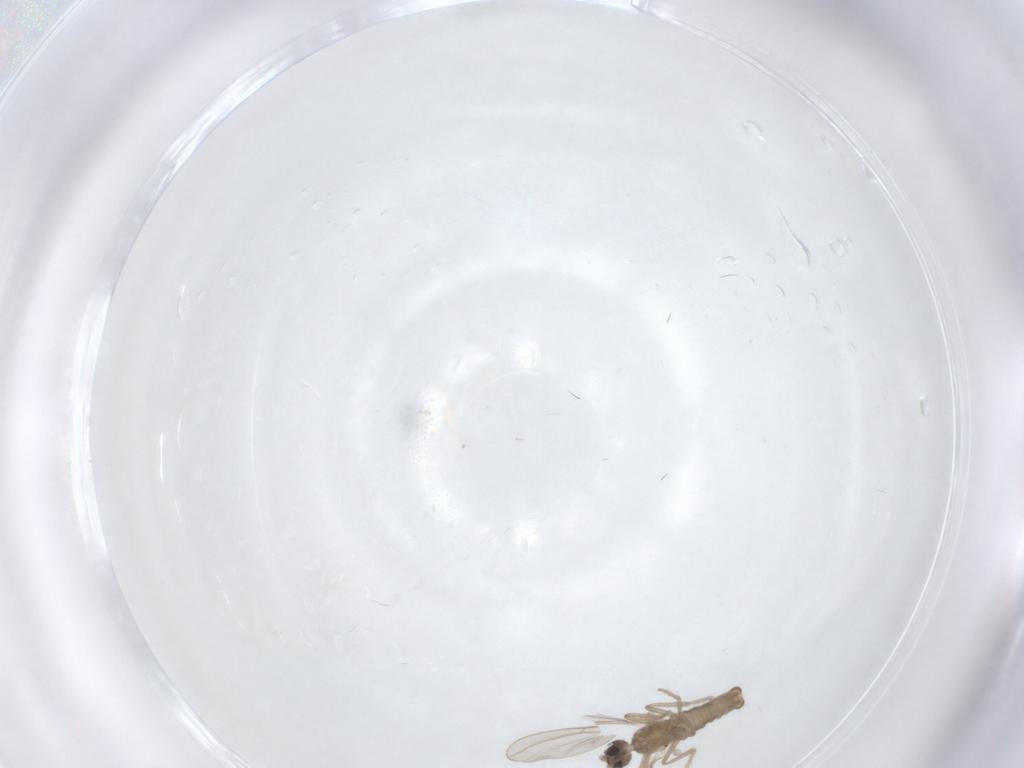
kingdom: Animalia
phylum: Arthropoda
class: Insecta
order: Diptera
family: Cecidomyiidae
